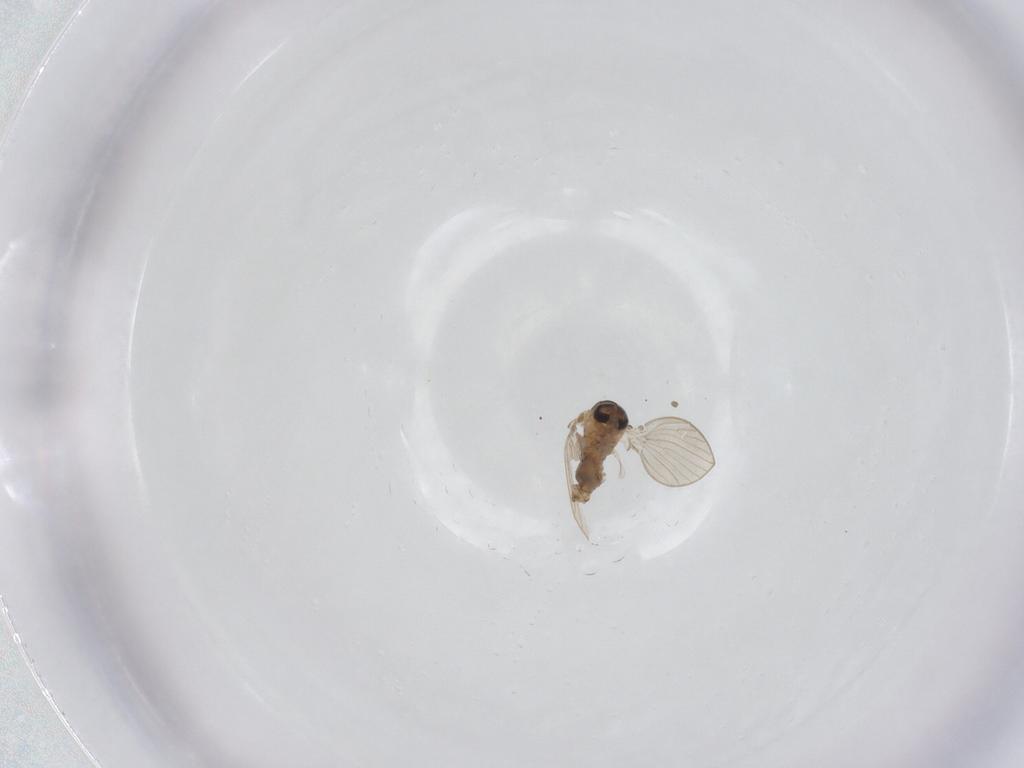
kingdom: Animalia
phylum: Arthropoda
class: Insecta
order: Diptera
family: Psychodidae
